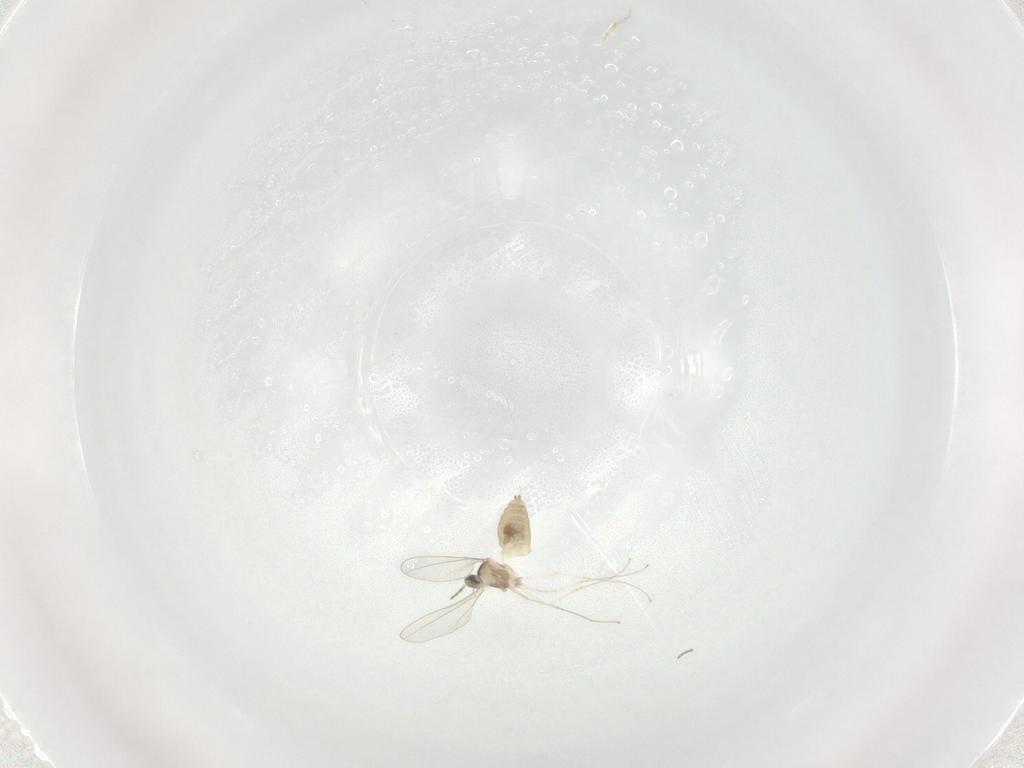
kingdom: Animalia
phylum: Arthropoda
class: Insecta
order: Diptera
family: Cecidomyiidae
